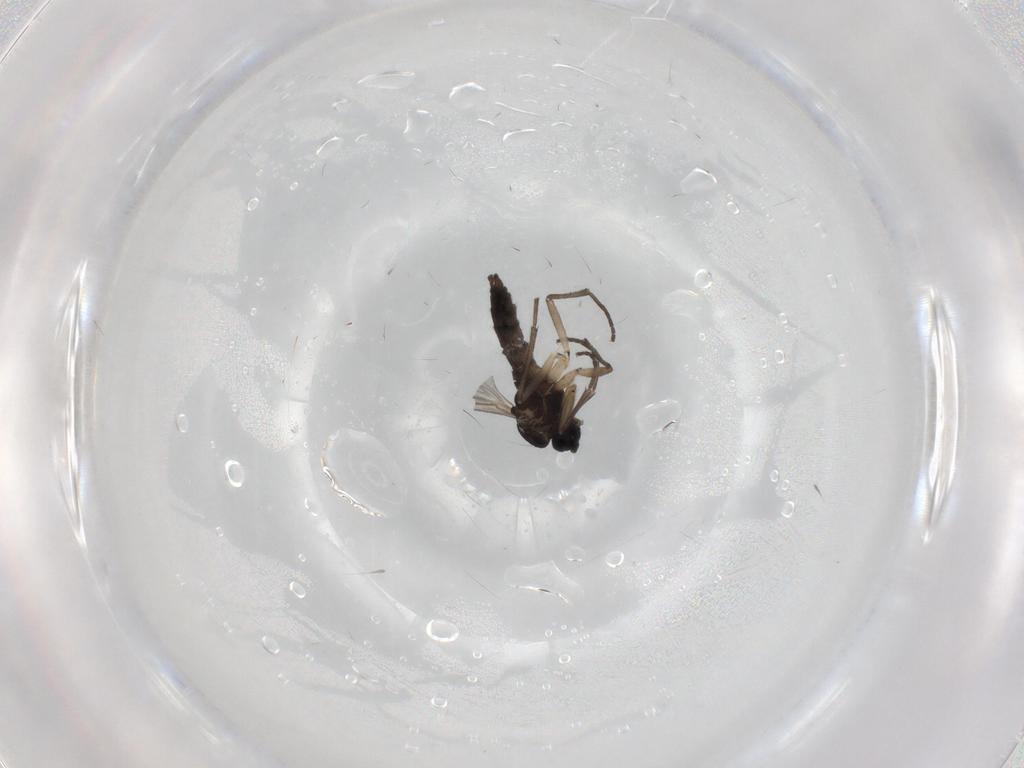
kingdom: Animalia
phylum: Arthropoda
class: Insecta
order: Diptera
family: Sciaridae
